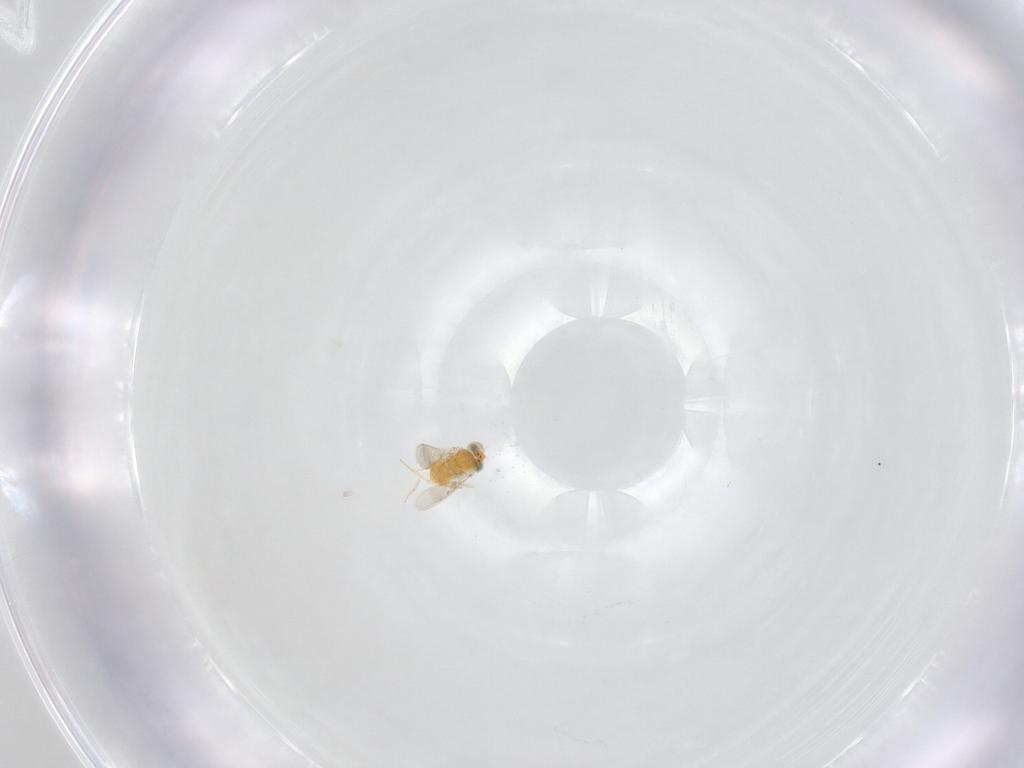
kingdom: Animalia
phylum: Arthropoda
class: Insecta
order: Hymenoptera
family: Aphelinidae
